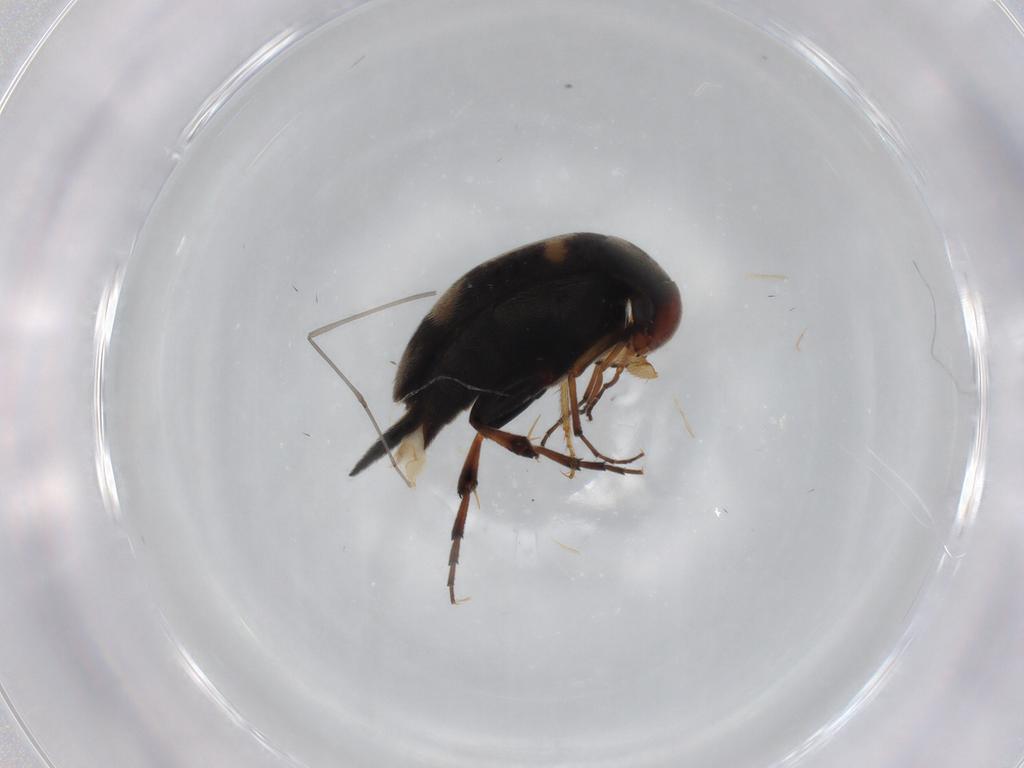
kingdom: Animalia
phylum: Arthropoda
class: Insecta
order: Coleoptera
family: Mordellidae
